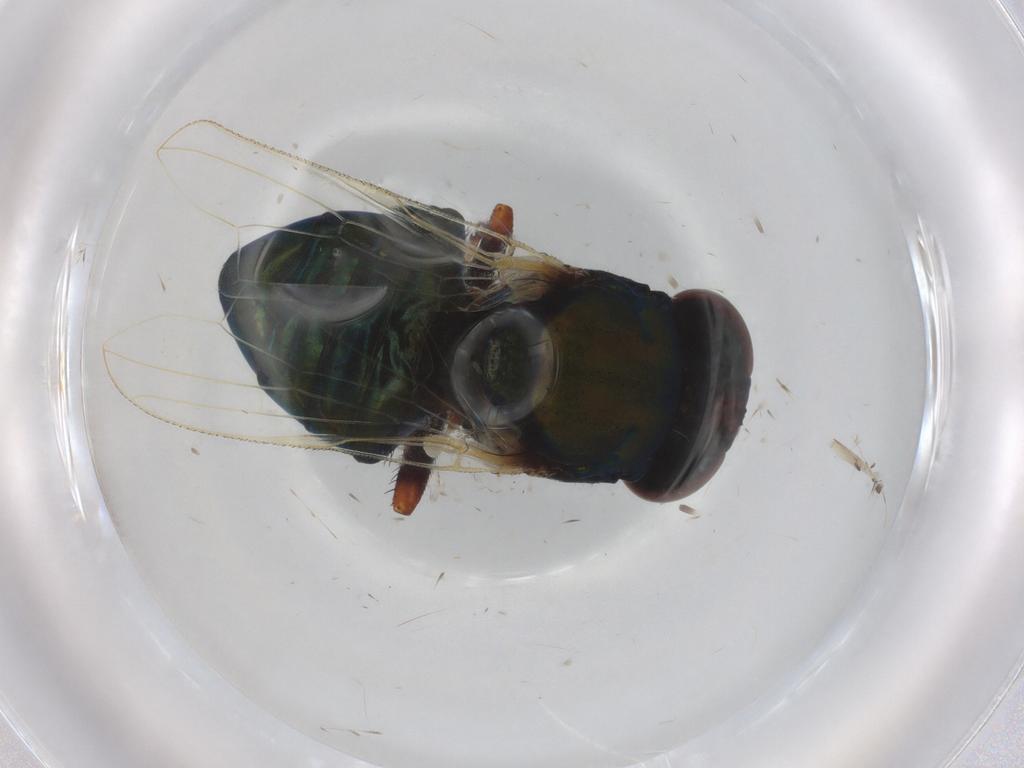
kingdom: Animalia
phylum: Arthropoda
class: Insecta
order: Diptera
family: Ulidiidae
